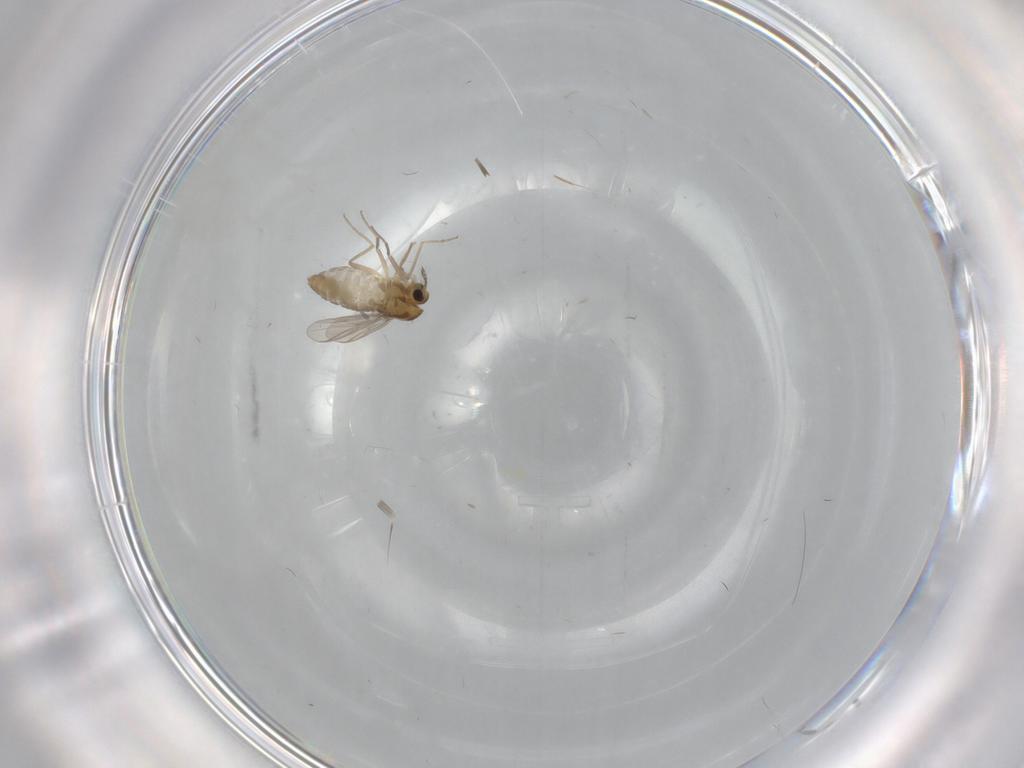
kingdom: Animalia
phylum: Arthropoda
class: Insecta
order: Diptera
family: Chironomidae
